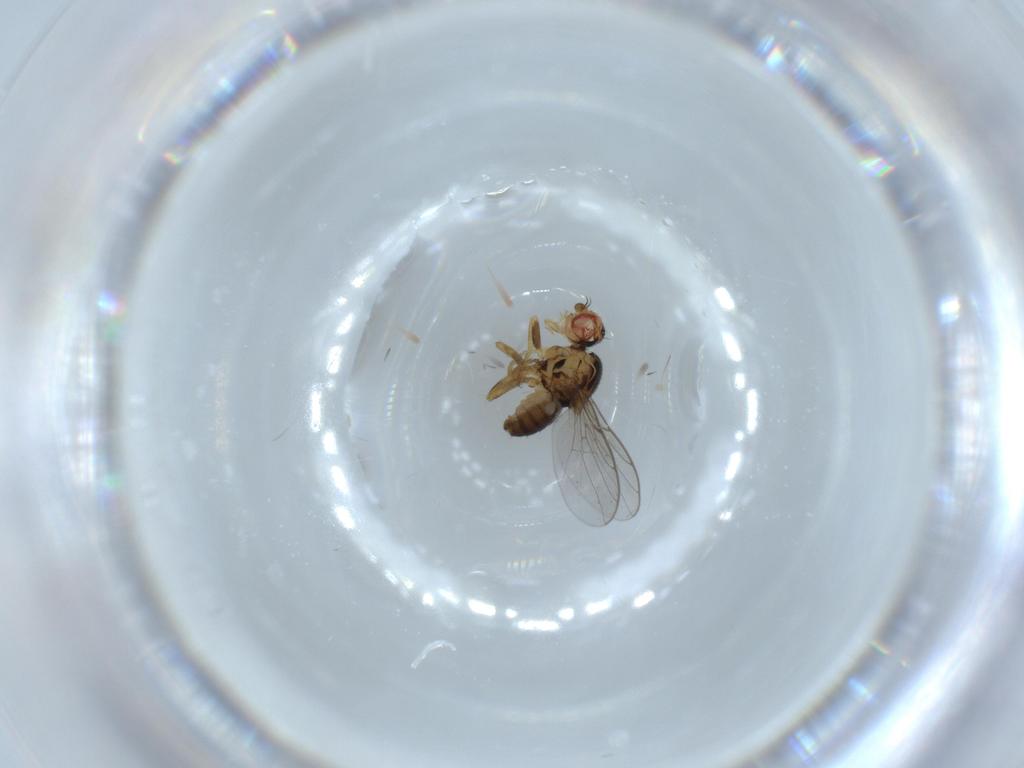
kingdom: Animalia
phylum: Arthropoda
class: Insecta
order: Diptera
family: Chloropidae
